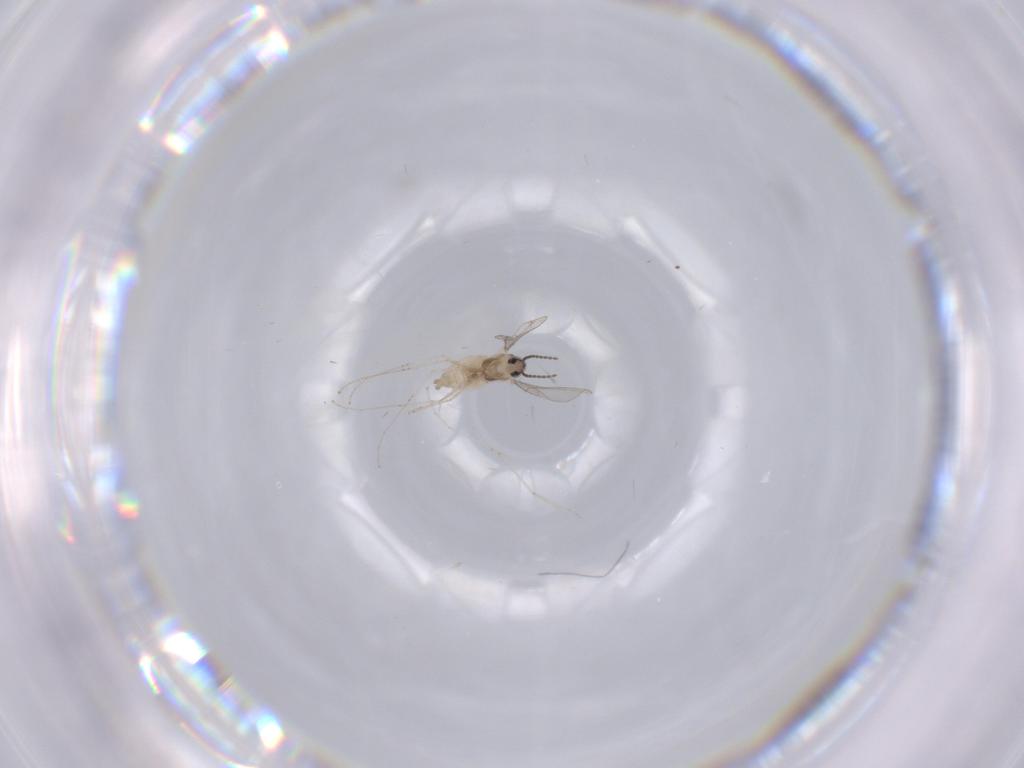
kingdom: Animalia
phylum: Arthropoda
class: Insecta
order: Diptera
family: Cecidomyiidae
